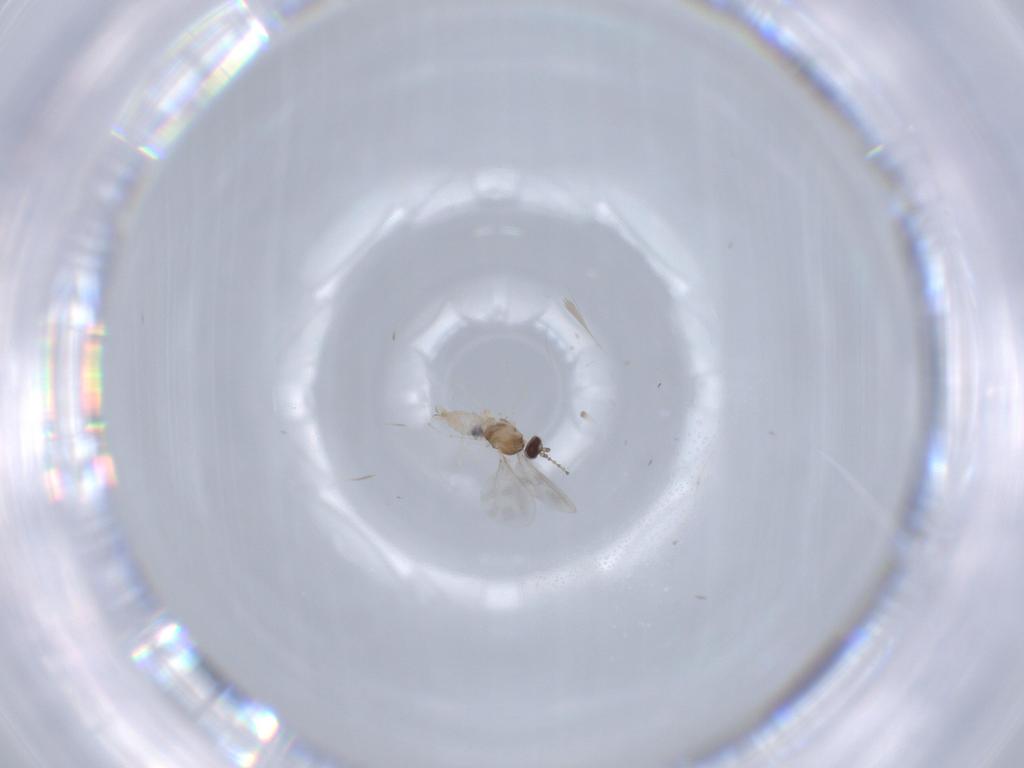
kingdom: Animalia
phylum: Arthropoda
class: Insecta
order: Diptera
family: Cecidomyiidae
